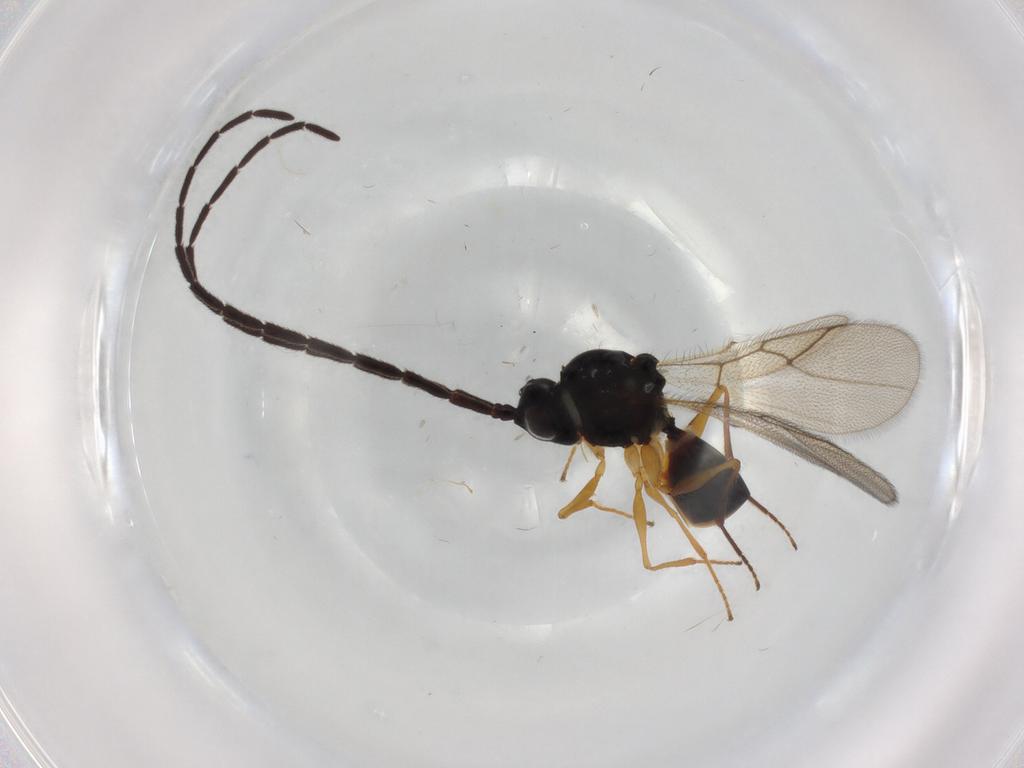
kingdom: Animalia
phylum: Arthropoda
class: Insecta
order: Hymenoptera
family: Figitidae
